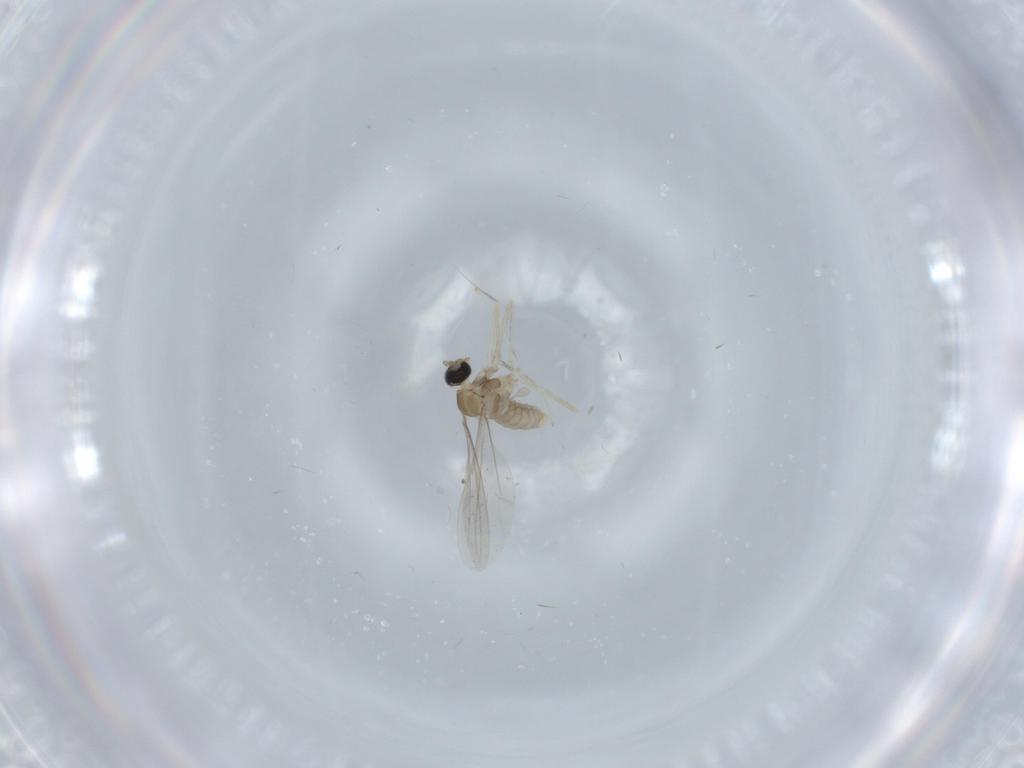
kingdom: Animalia
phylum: Arthropoda
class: Insecta
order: Diptera
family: Cecidomyiidae
